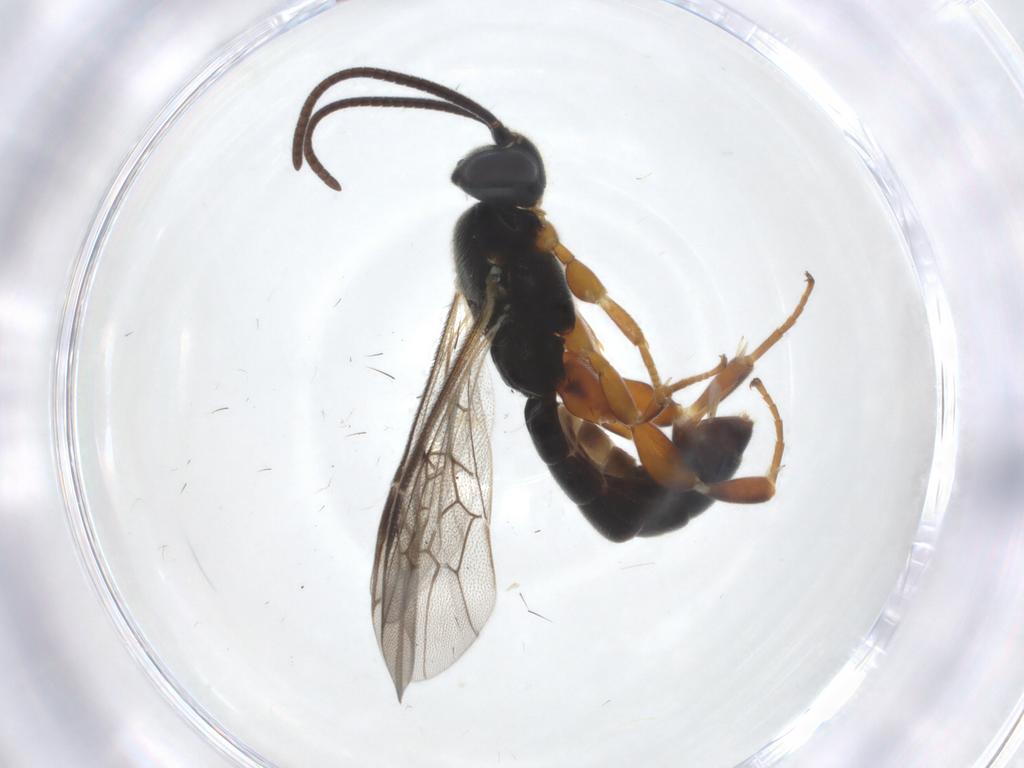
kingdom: Animalia
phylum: Arthropoda
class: Insecta
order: Hymenoptera
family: Ichneumonidae
